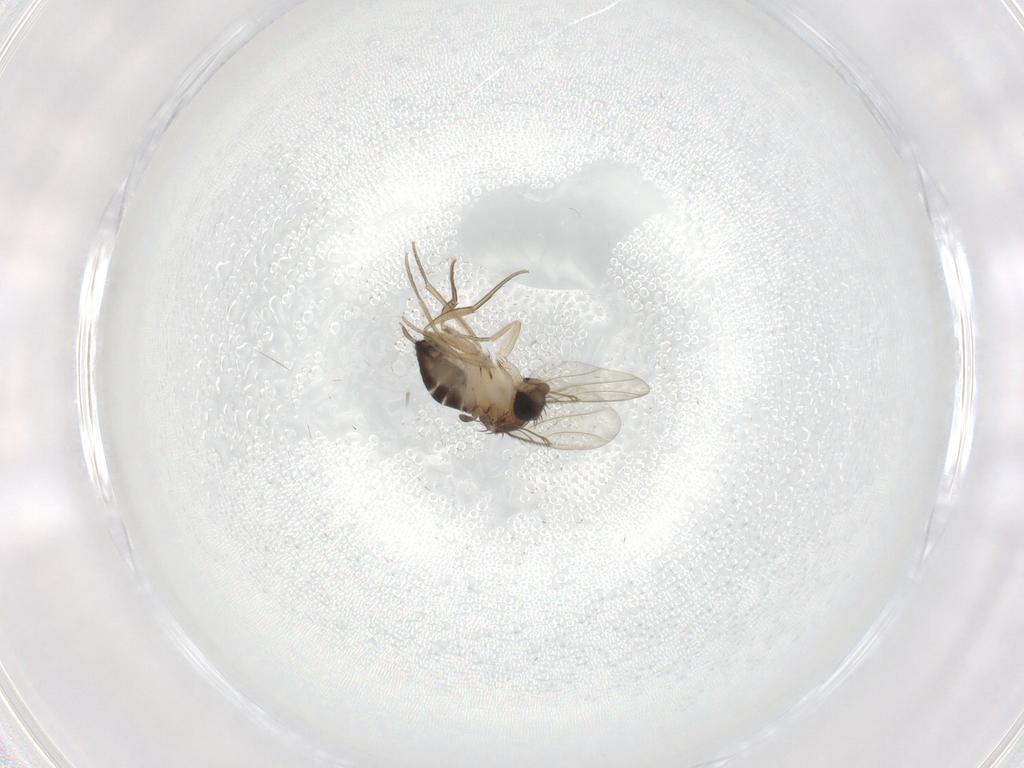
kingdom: Animalia
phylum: Arthropoda
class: Insecta
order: Diptera
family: Phoridae
